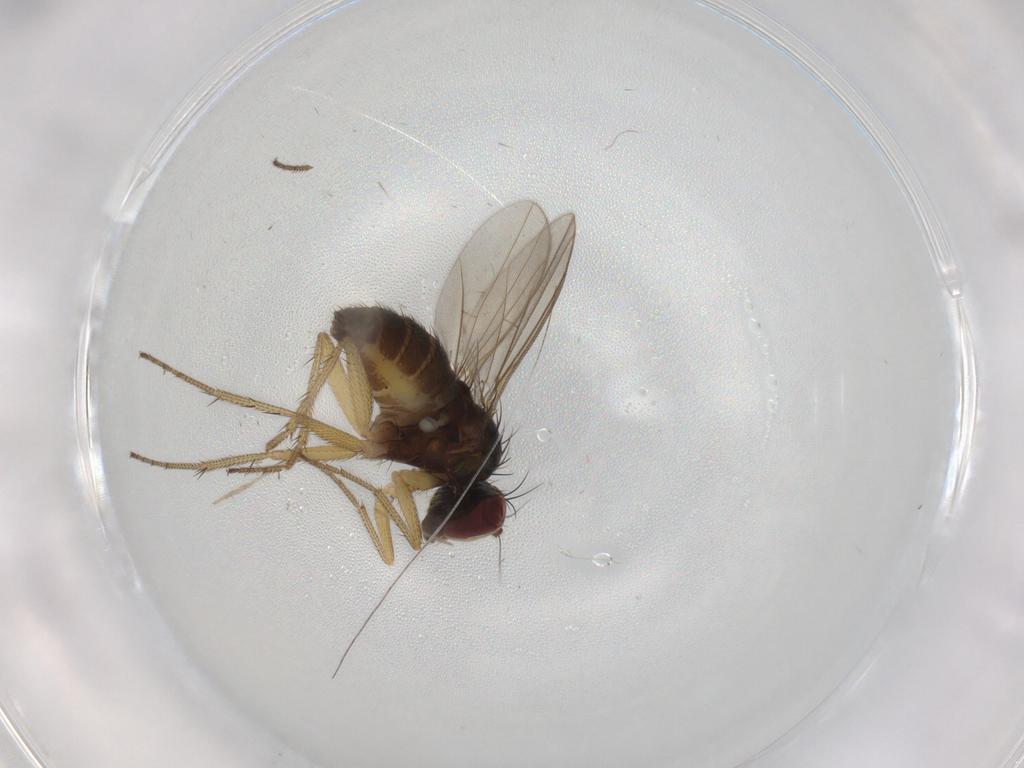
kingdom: Animalia
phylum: Arthropoda
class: Insecta
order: Diptera
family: Chironomidae
